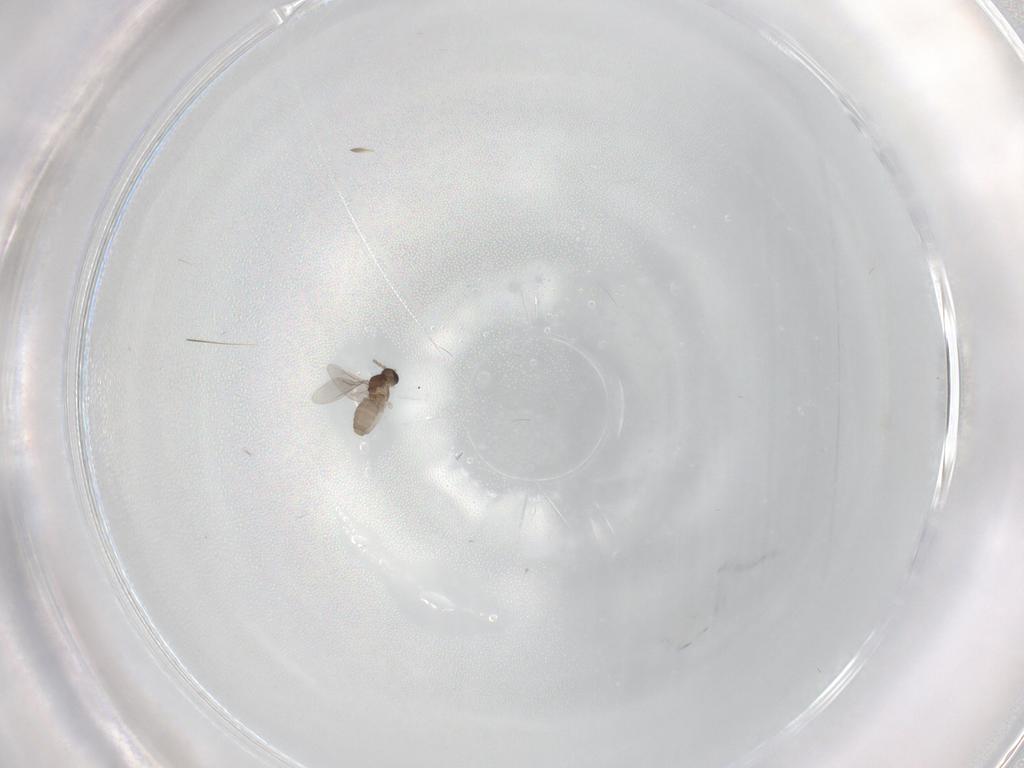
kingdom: Animalia
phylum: Arthropoda
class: Insecta
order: Diptera
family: Cecidomyiidae
